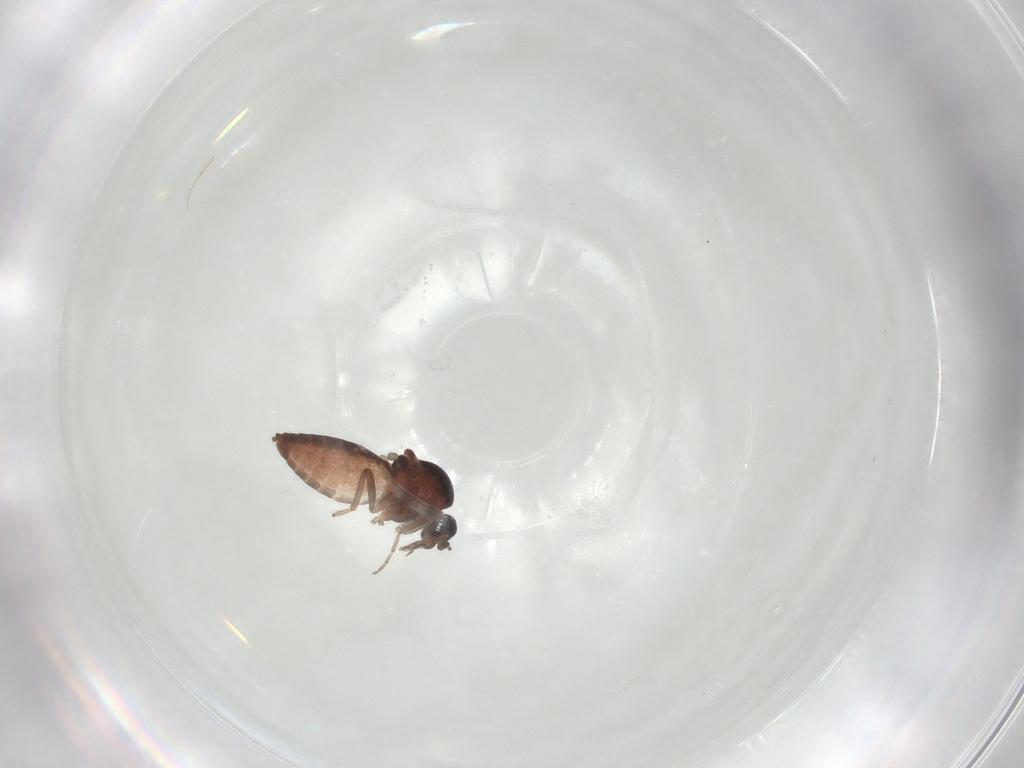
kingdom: Animalia
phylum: Arthropoda
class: Insecta
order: Diptera
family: Ceratopogonidae
